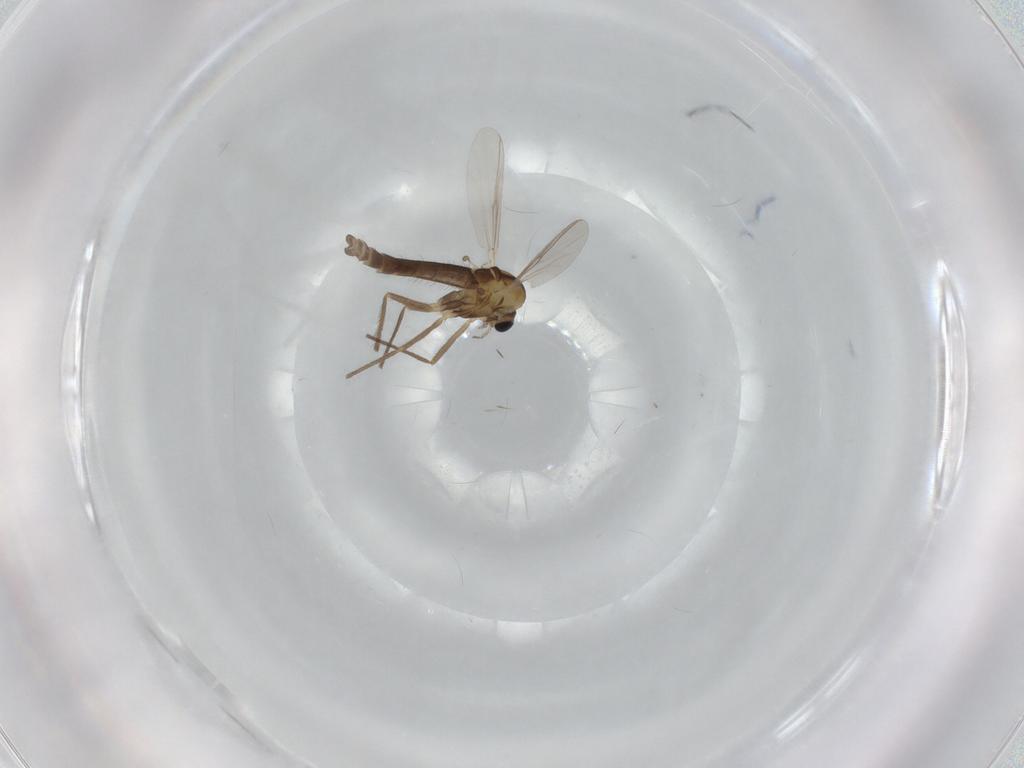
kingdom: Animalia
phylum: Arthropoda
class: Insecta
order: Diptera
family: Chironomidae
